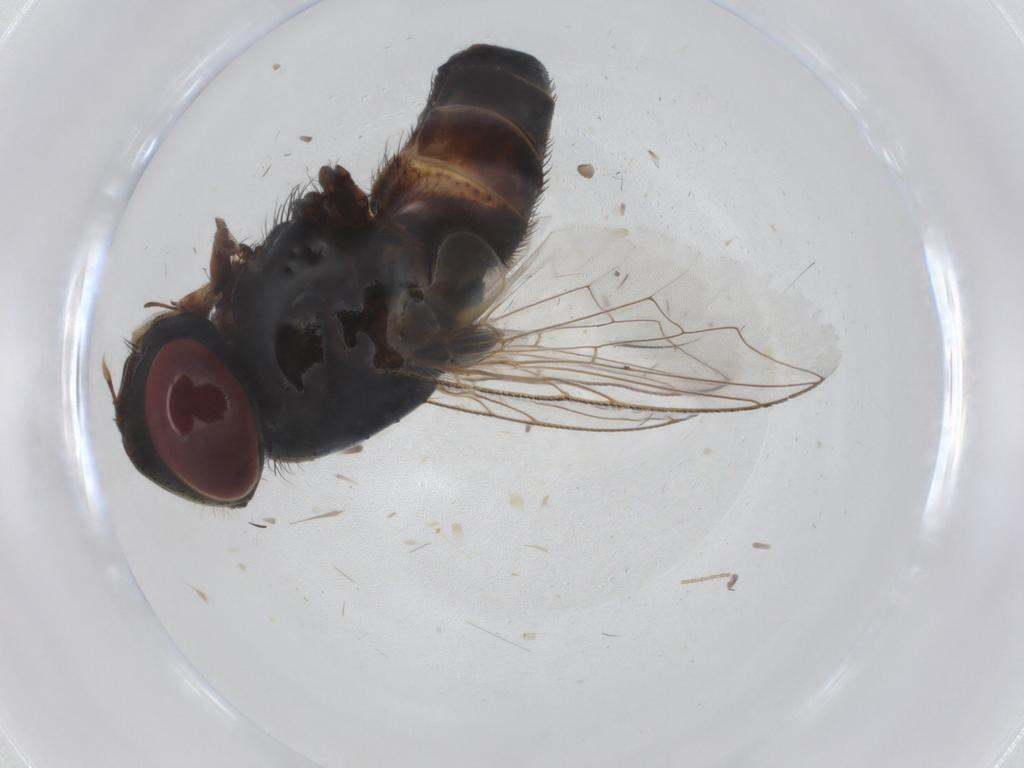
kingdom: Animalia
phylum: Arthropoda
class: Insecta
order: Diptera
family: Sarcophagidae
